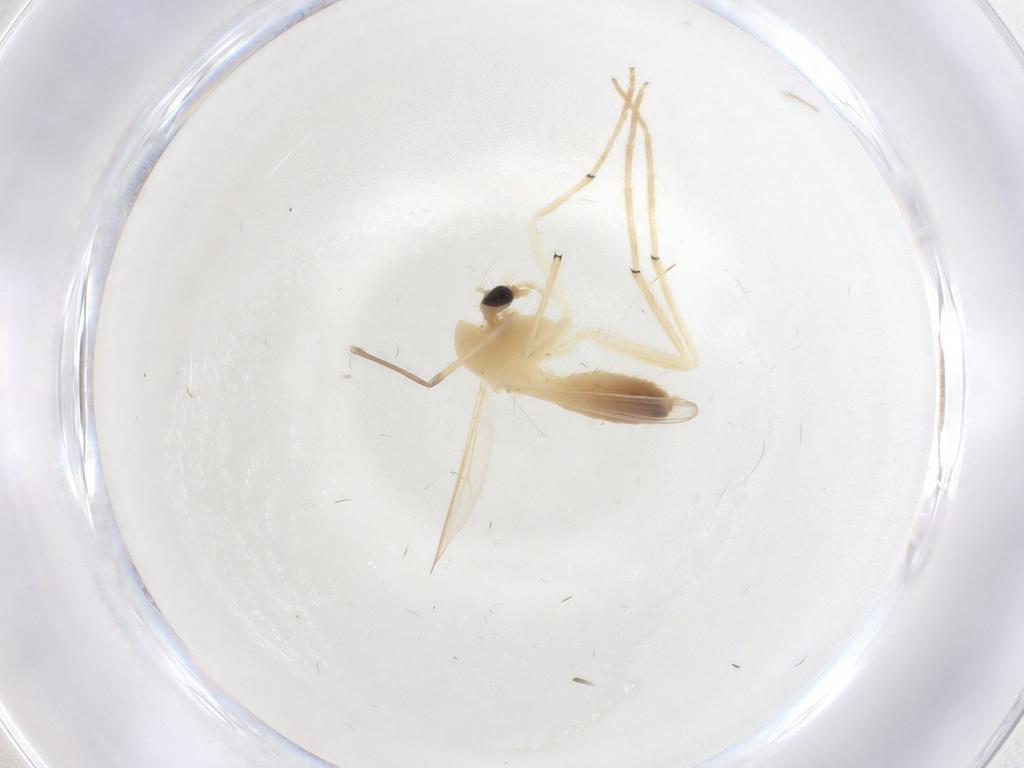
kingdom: Animalia
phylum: Arthropoda
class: Insecta
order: Diptera
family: Chironomidae
